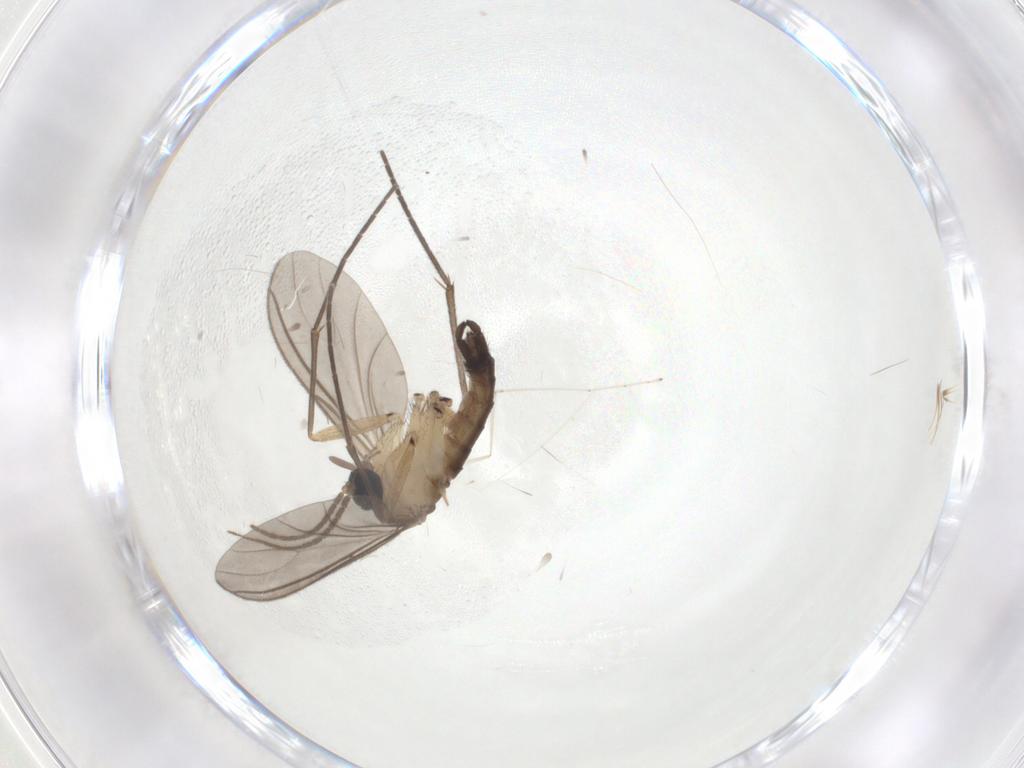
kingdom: Animalia
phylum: Arthropoda
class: Insecta
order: Diptera
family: Sciaridae
